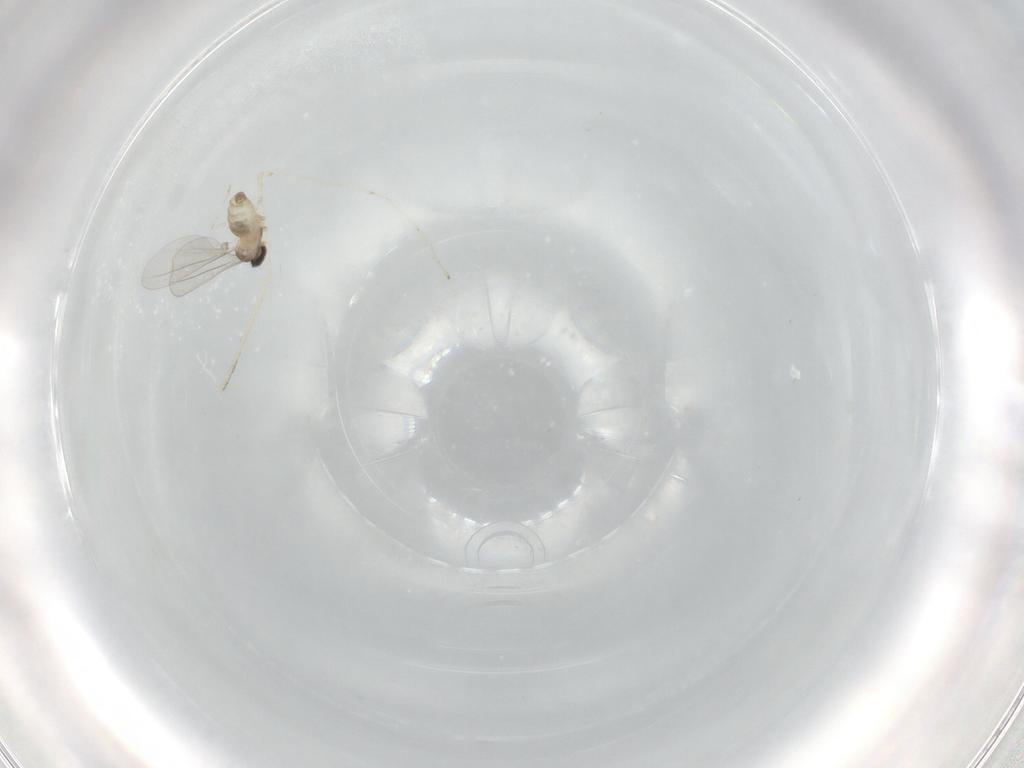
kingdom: Animalia
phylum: Arthropoda
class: Insecta
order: Diptera
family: Cecidomyiidae
